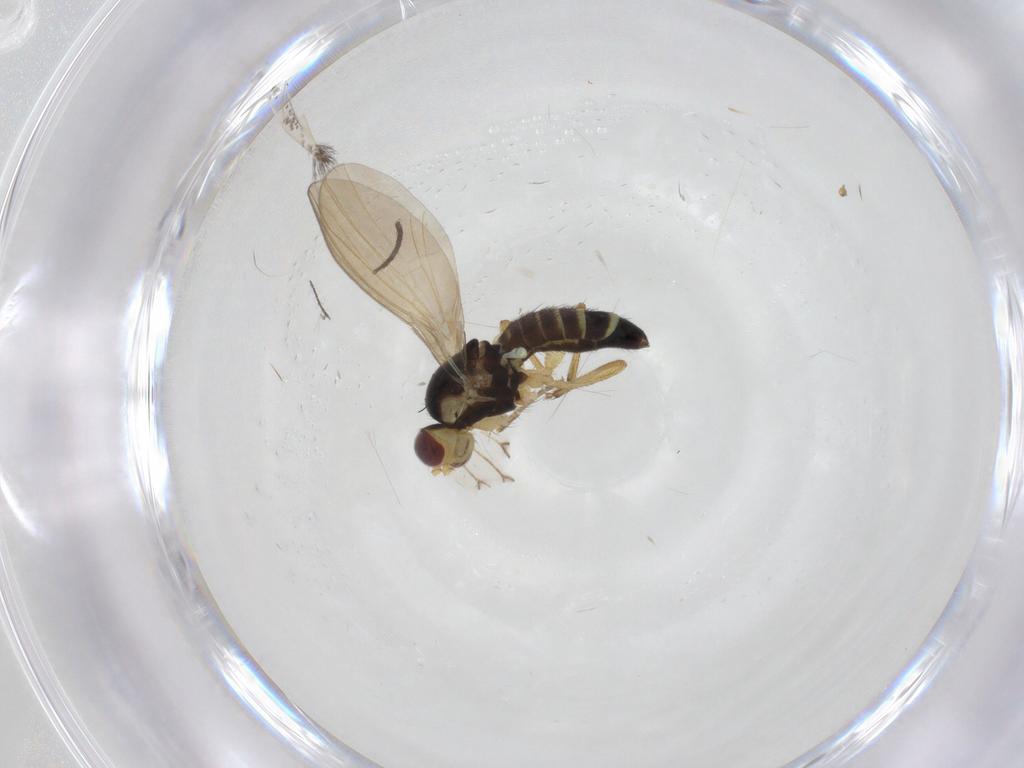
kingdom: Animalia
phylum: Arthropoda
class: Insecta
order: Diptera
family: Agromyzidae
